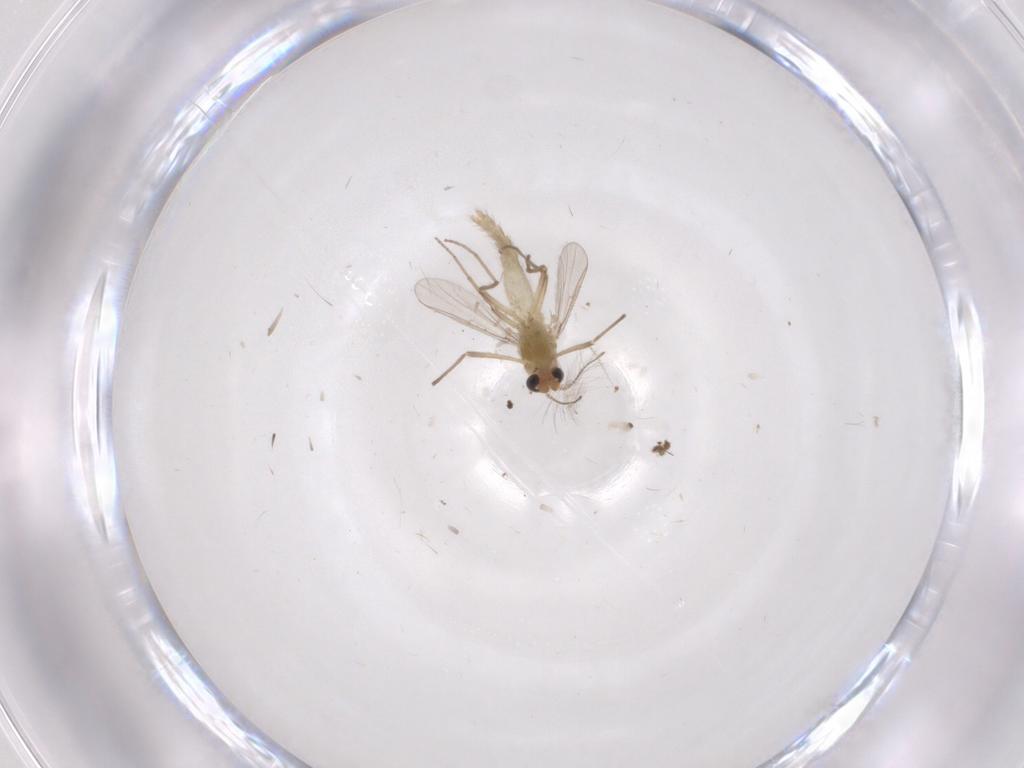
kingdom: Animalia
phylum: Arthropoda
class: Insecta
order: Diptera
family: Chironomidae
